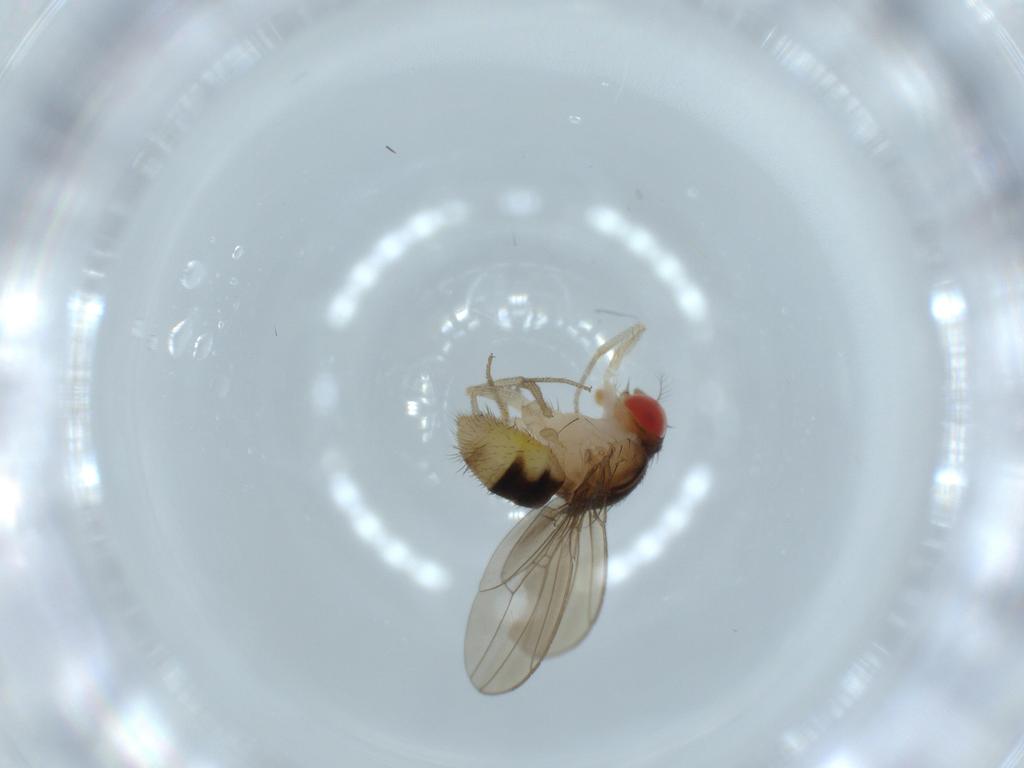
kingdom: Animalia
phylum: Arthropoda
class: Insecta
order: Diptera
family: Drosophilidae
